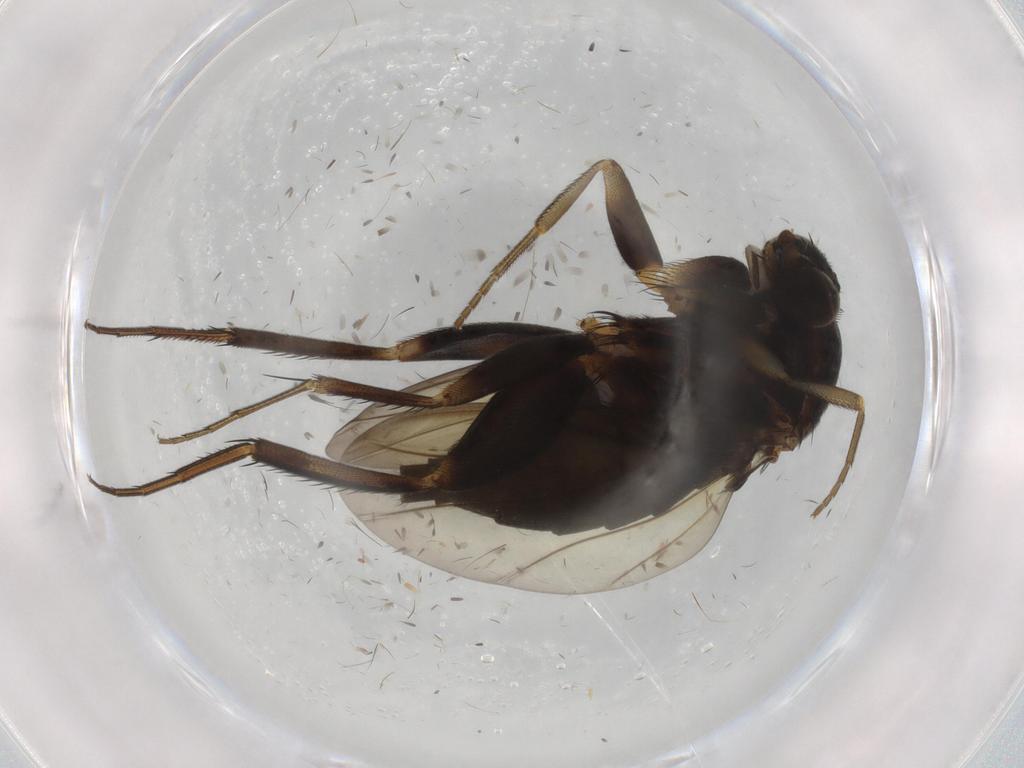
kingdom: Animalia
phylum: Arthropoda
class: Insecta
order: Diptera
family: Phoridae
